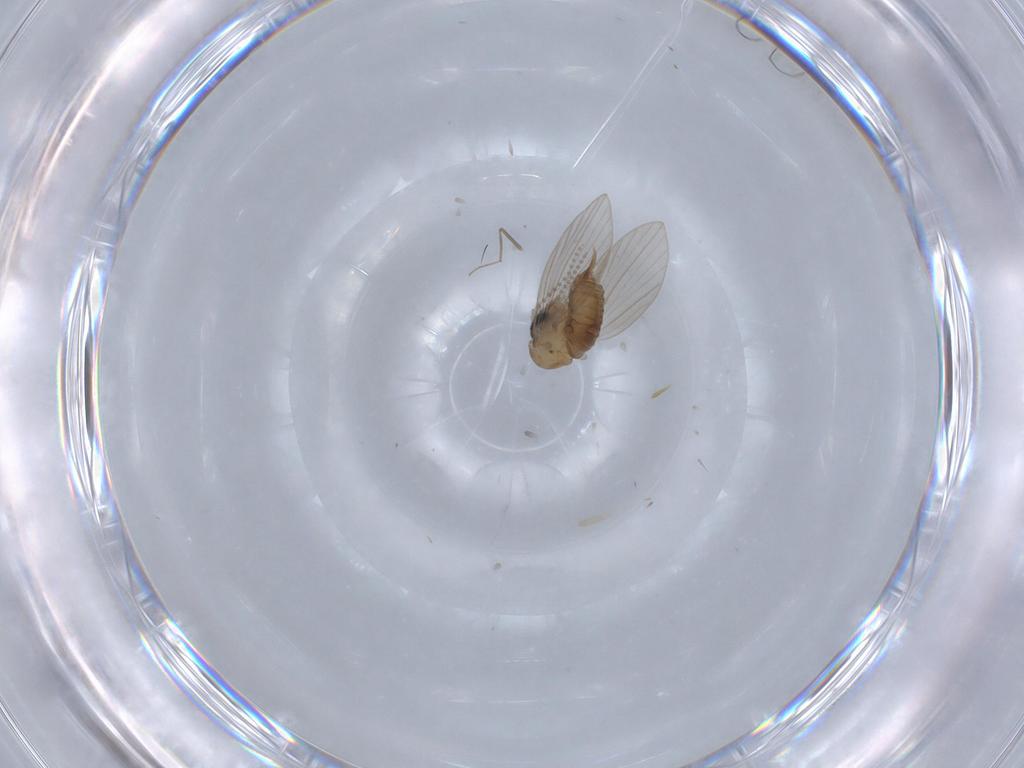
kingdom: Animalia
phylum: Arthropoda
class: Insecta
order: Diptera
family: Psychodidae
